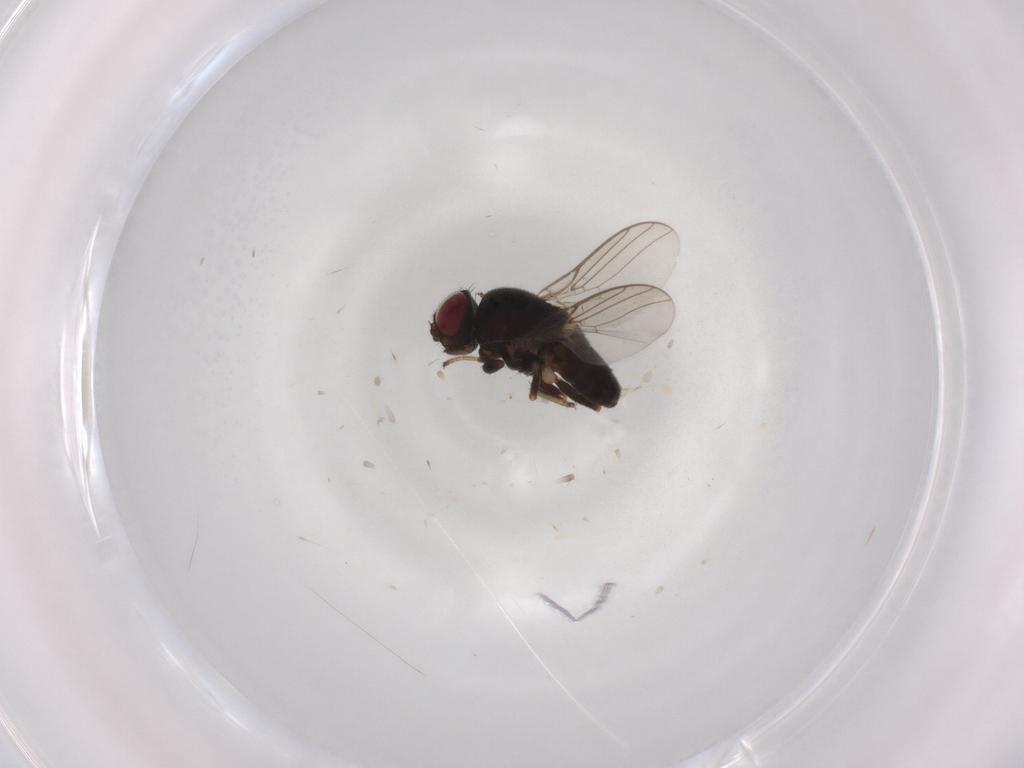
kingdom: Animalia
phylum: Arthropoda
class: Insecta
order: Diptera
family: Chloropidae
